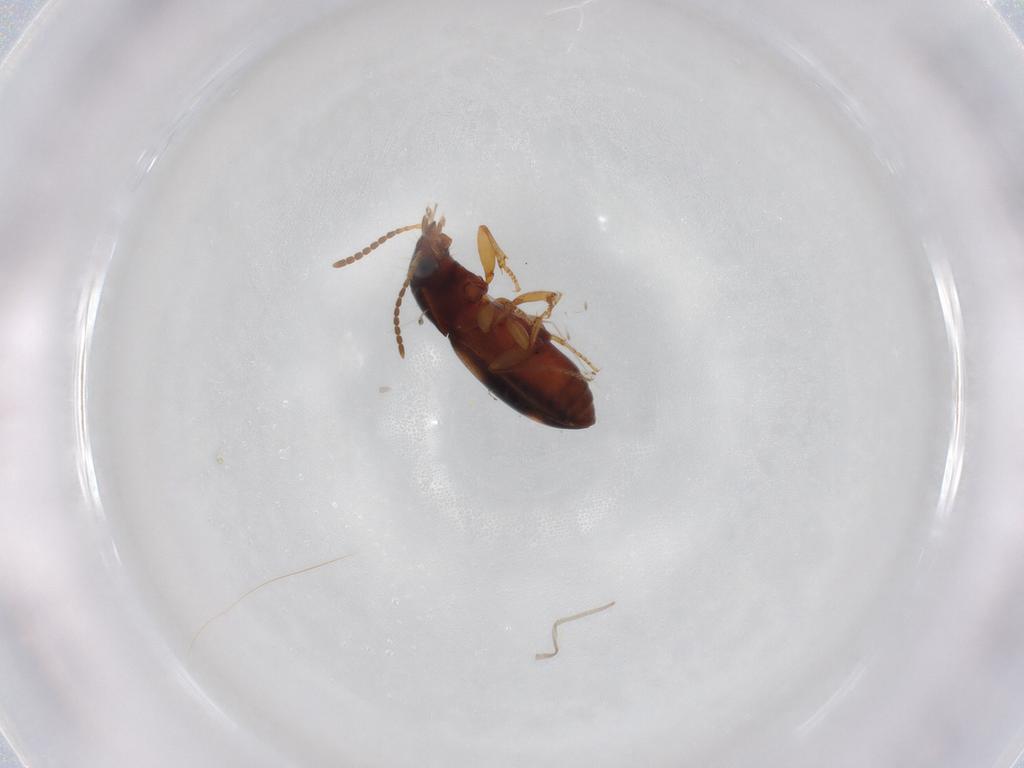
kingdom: Animalia
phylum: Arthropoda
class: Insecta
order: Coleoptera
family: Carabidae
